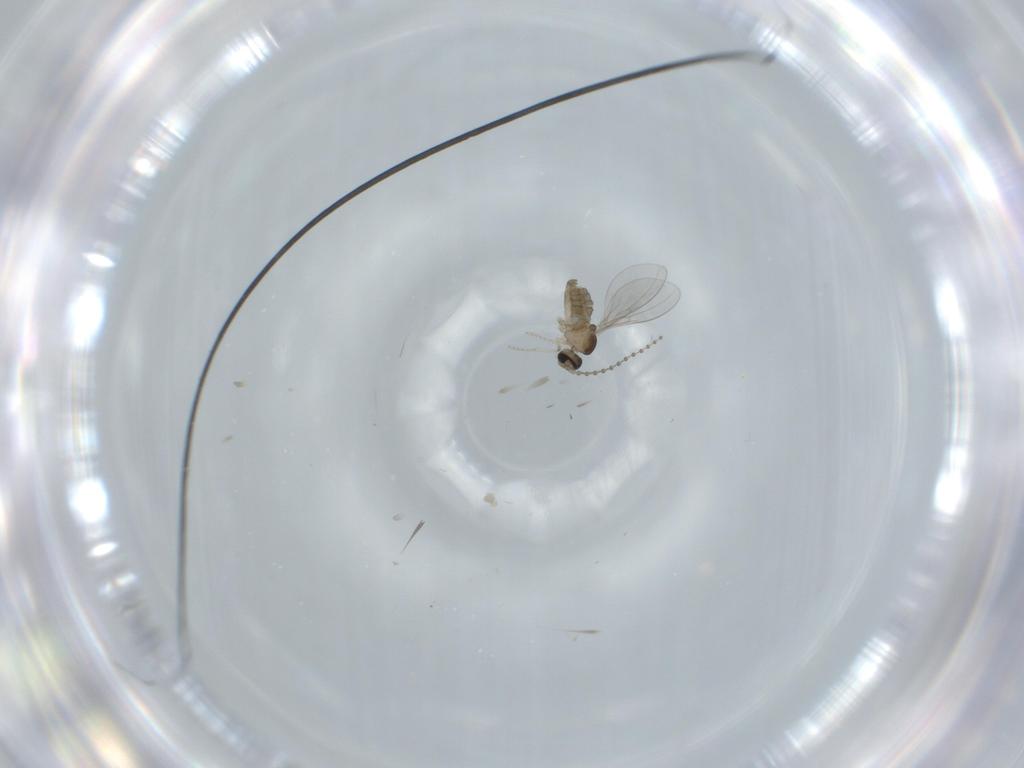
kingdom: Animalia
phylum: Arthropoda
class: Insecta
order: Diptera
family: Cecidomyiidae
